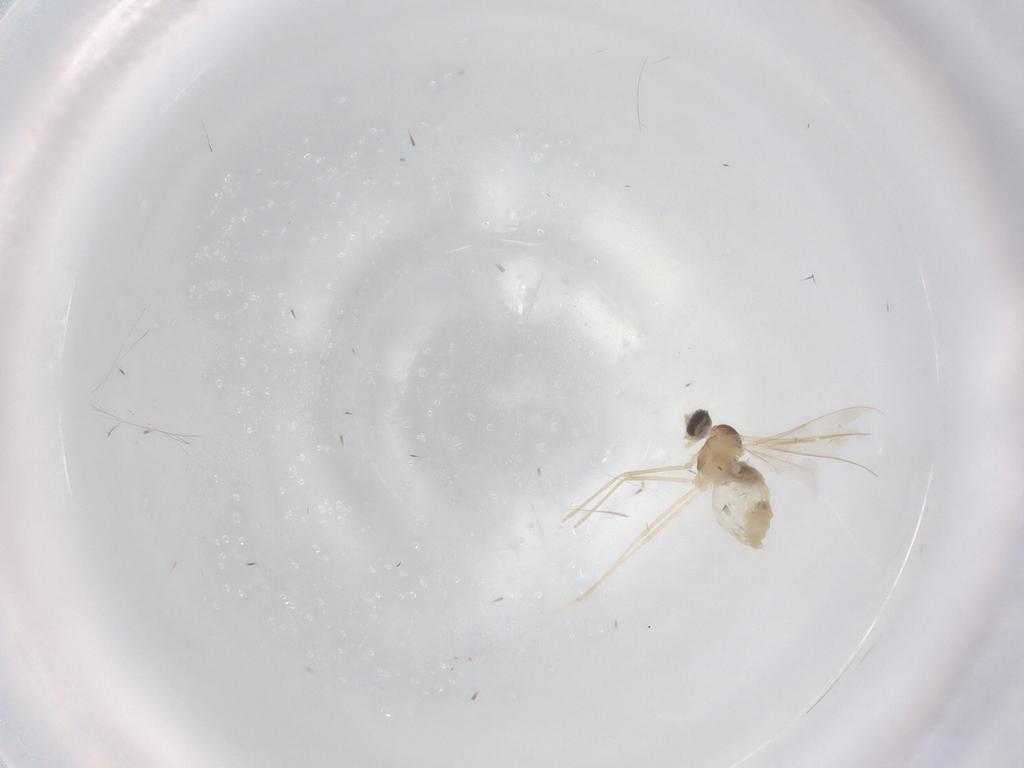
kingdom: Animalia
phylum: Arthropoda
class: Insecta
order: Diptera
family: Cecidomyiidae
